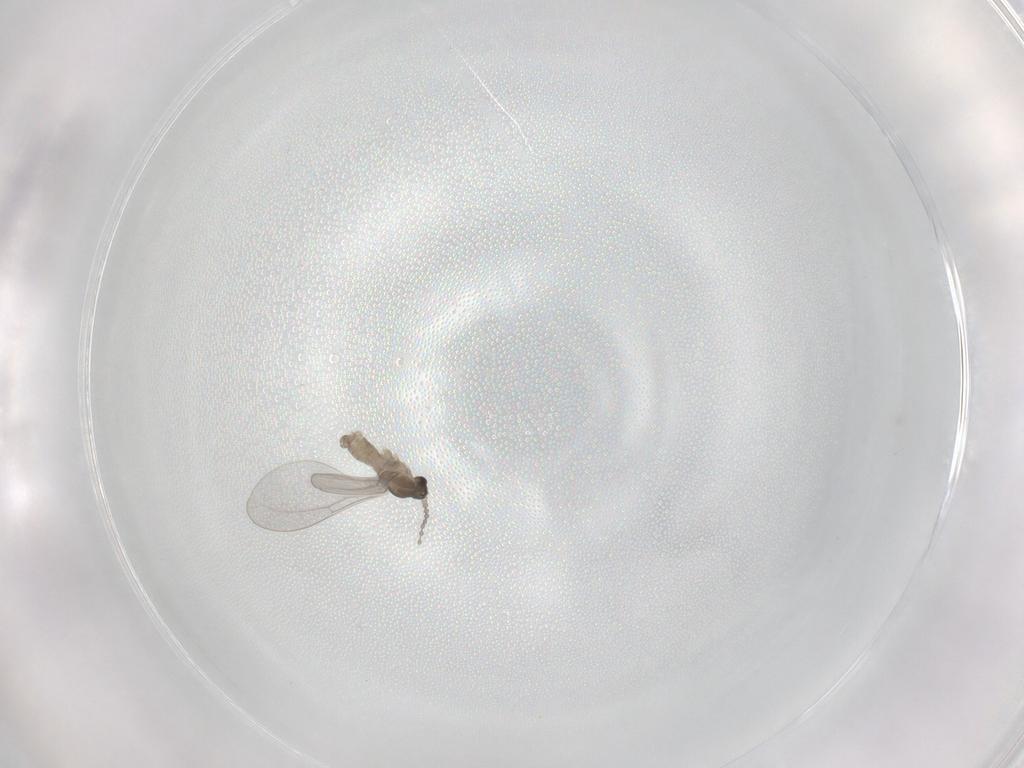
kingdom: Animalia
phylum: Arthropoda
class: Insecta
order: Diptera
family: Phoridae
